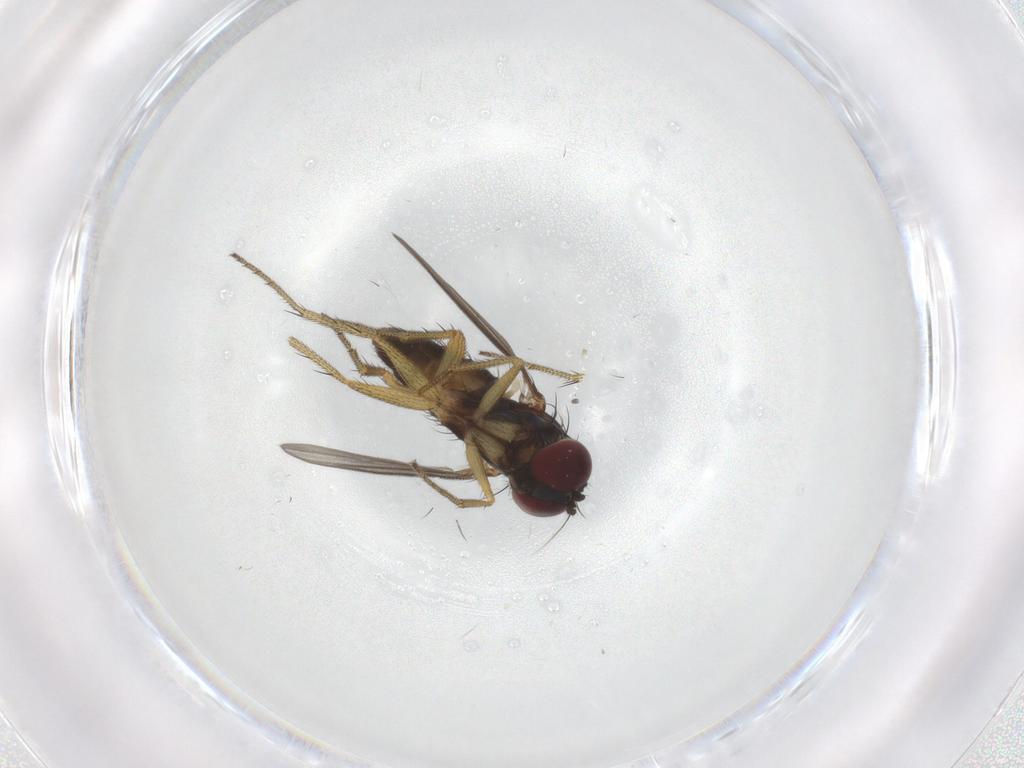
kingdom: Animalia
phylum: Arthropoda
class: Insecta
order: Diptera
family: Dolichopodidae
